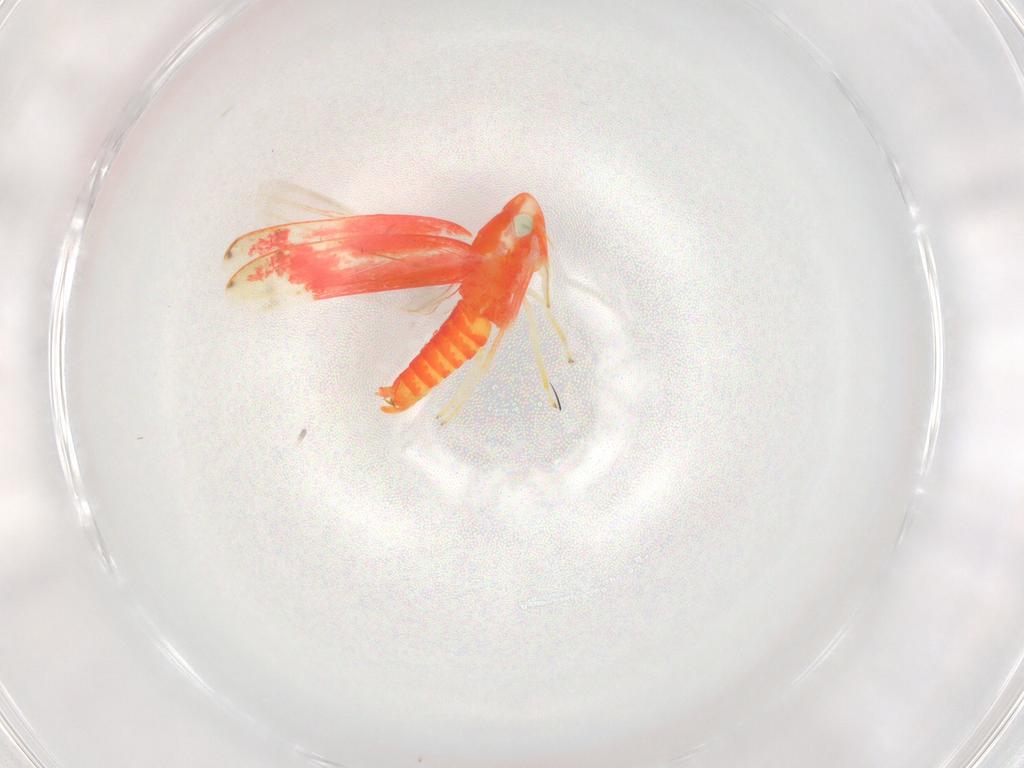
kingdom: Animalia
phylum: Arthropoda
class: Insecta
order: Hemiptera
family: Cicadellidae
